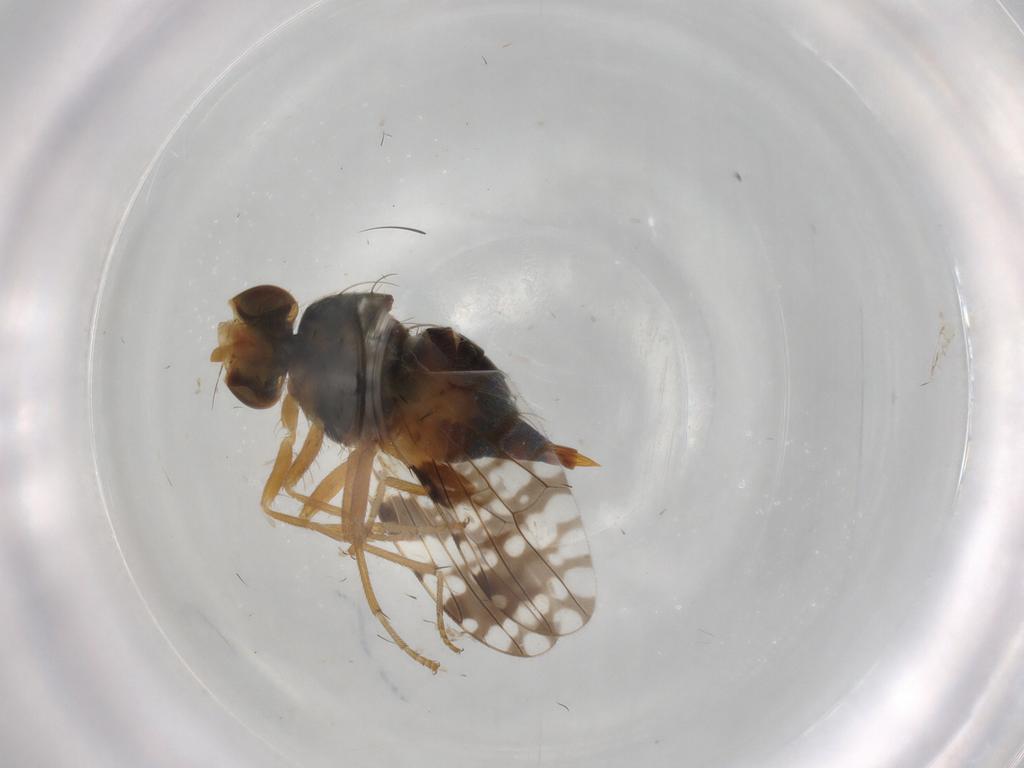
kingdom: Animalia
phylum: Arthropoda
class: Insecta
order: Diptera
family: Tephritidae
